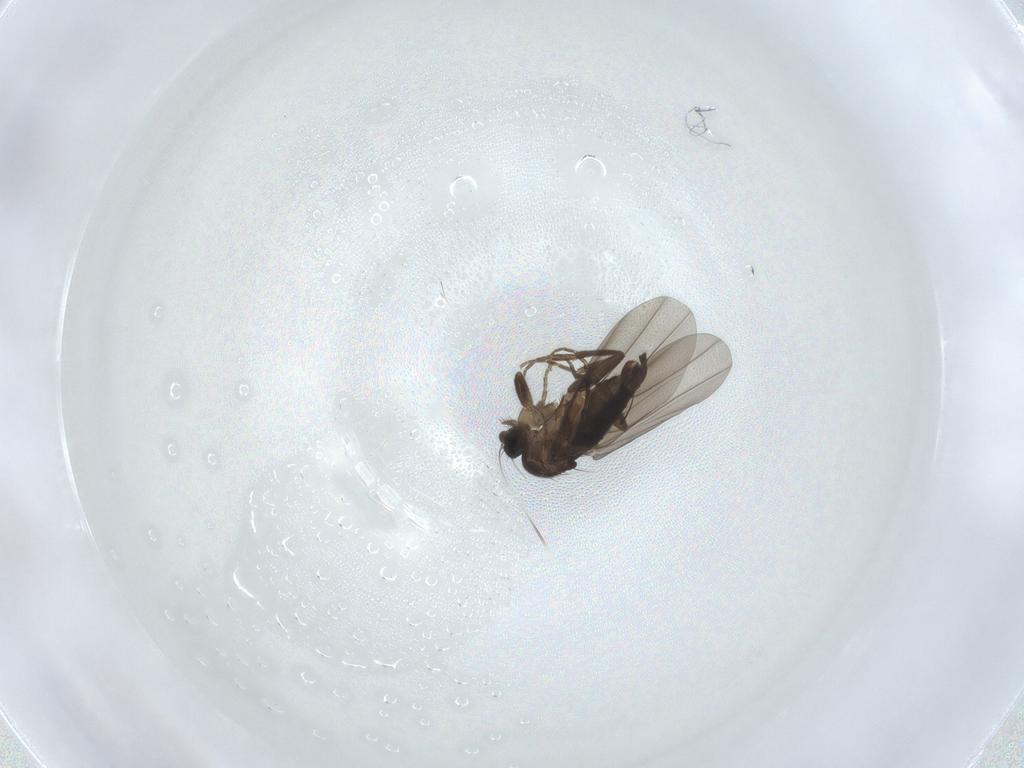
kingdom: Animalia
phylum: Arthropoda
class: Insecta
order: Diptera
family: Phoridae
